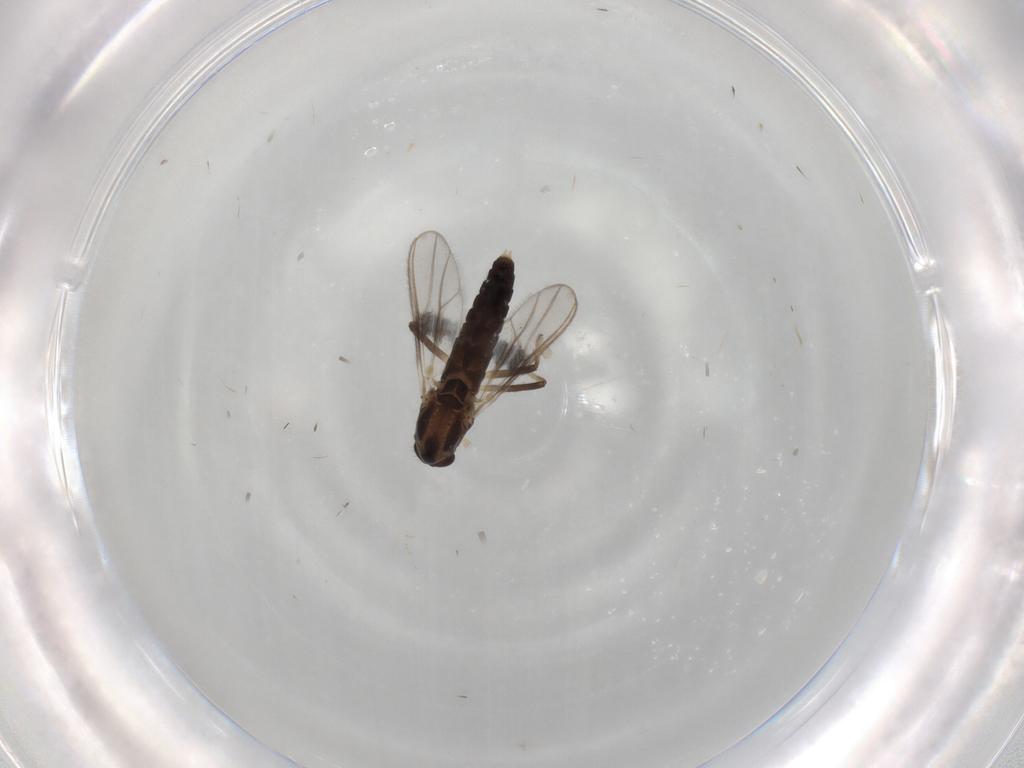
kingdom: Animalia
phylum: Arthropoda
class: Insecta
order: Diptera
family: Chironomidae
